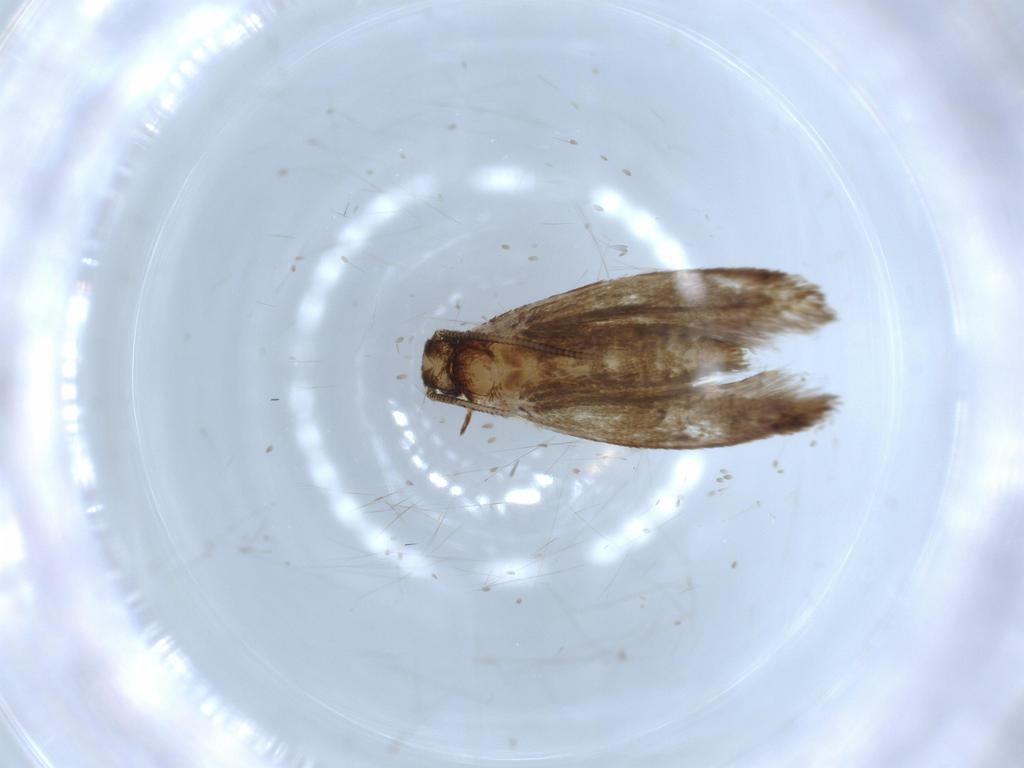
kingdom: Animalia
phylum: Arthropoda
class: Insecta
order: Lepidoptera
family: Tineidae
